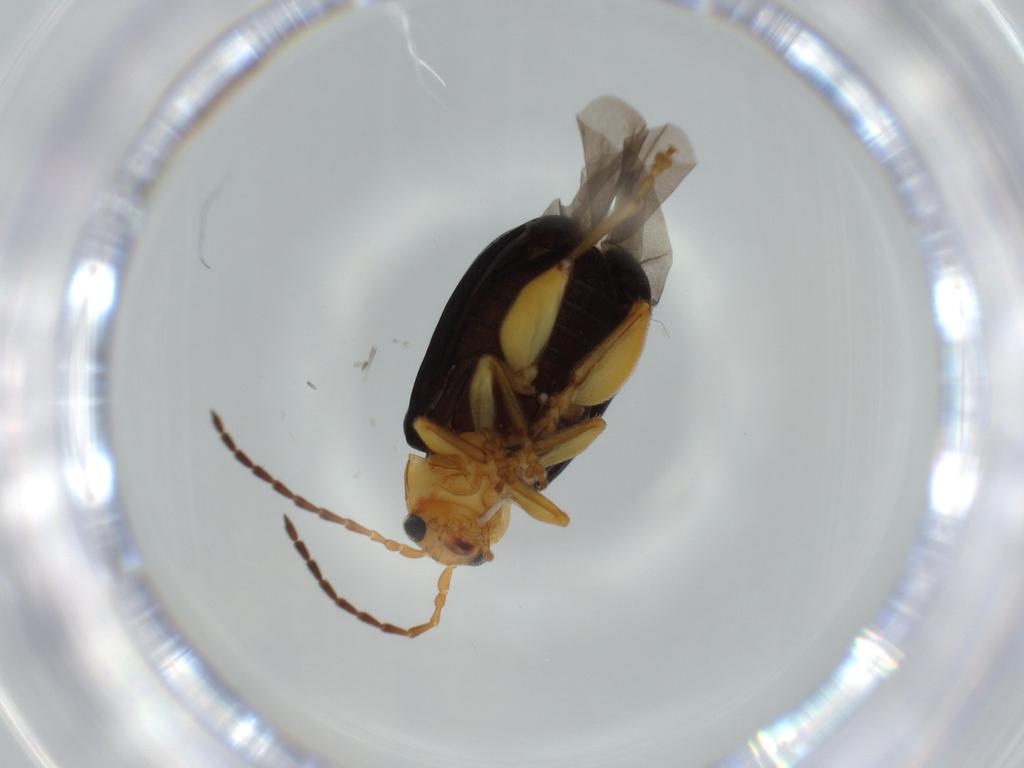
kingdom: Animalia
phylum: Arthropoda
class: Insecta
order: Coleoptera
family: Chrysomelidae
